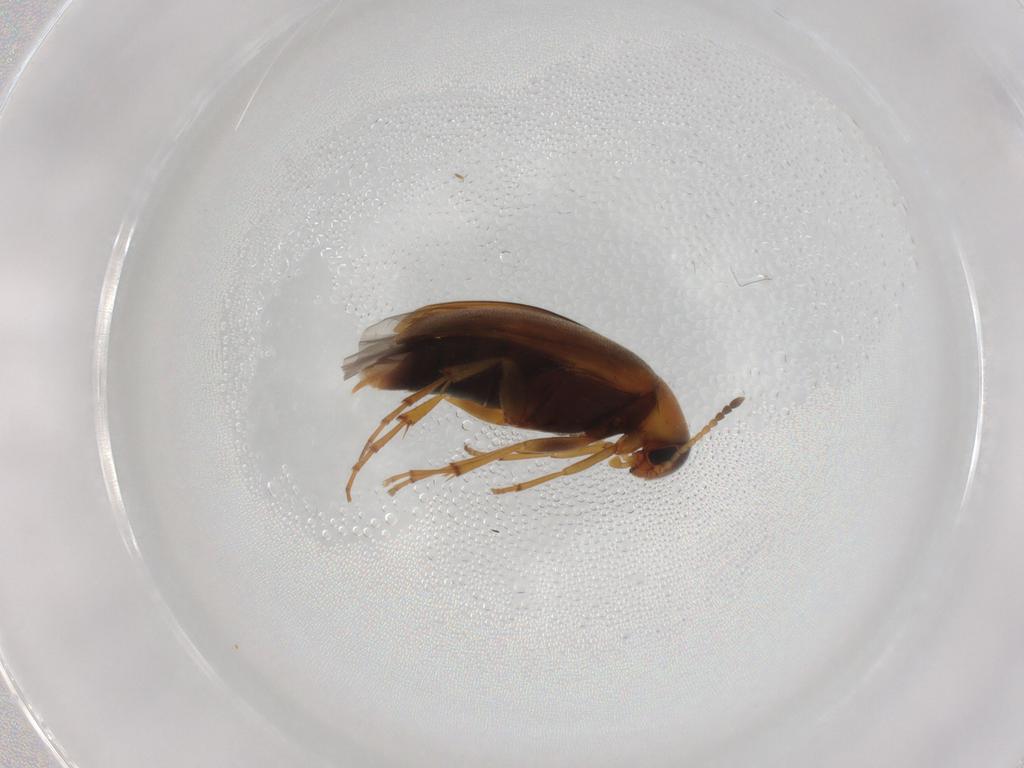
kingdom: Animalia
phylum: Arthropoda
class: Insecta
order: Coleoptera
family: Scraptiidae
